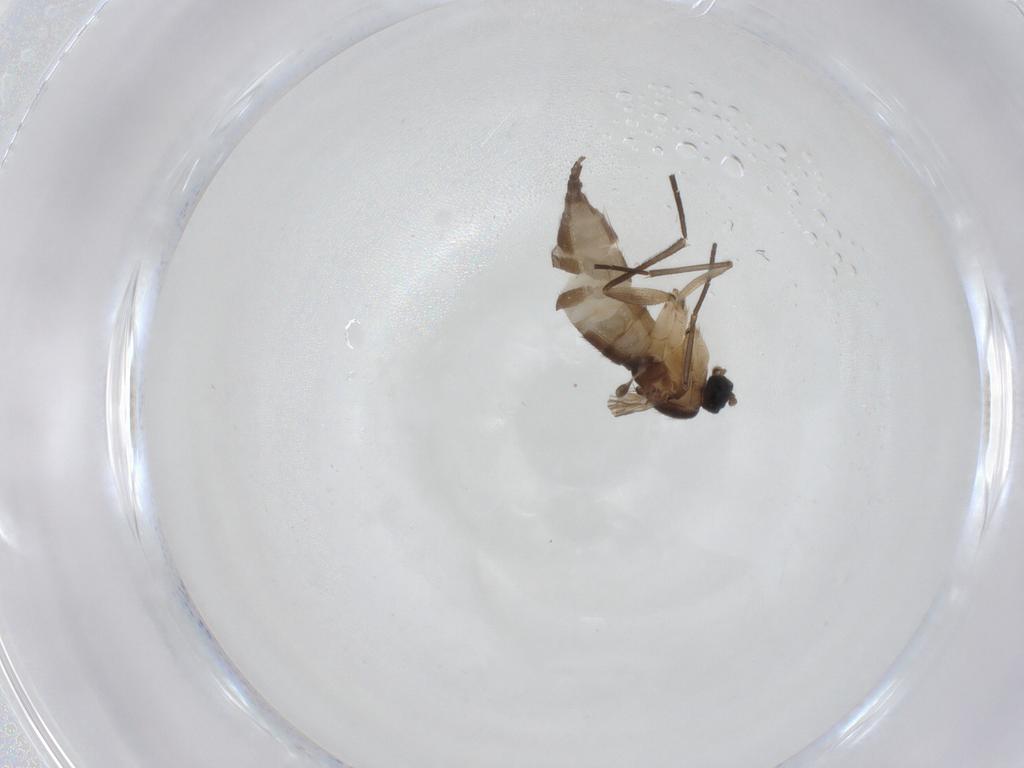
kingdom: Animalia
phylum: Arthropoda
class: Insecta
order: Diptera
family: Sciaridae
